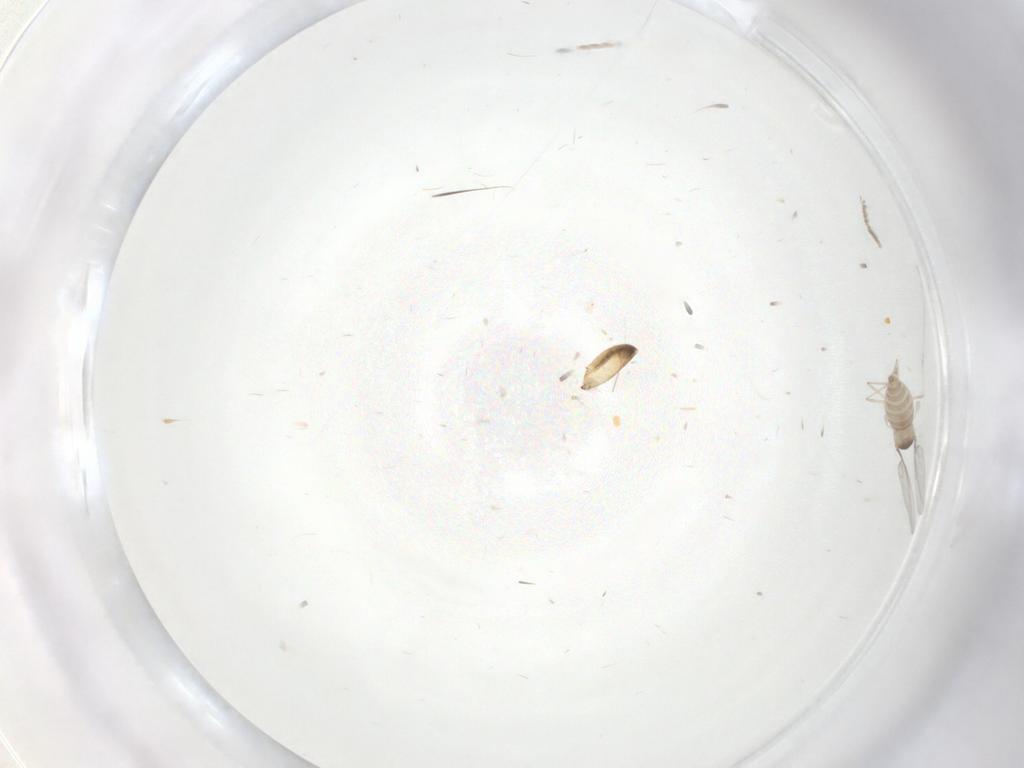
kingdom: Animalia
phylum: Arthropoda
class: Insecta
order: Diptera
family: Cecidomyiidae
